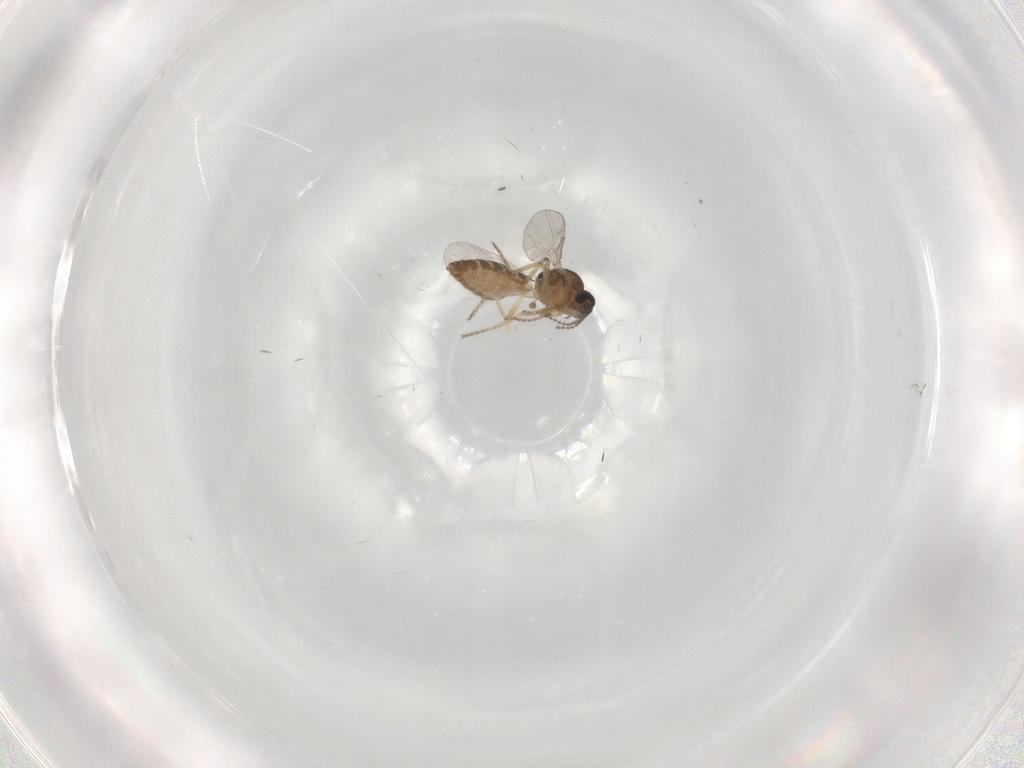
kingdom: Animalia
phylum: Arthropoda
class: Insecta
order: Diptera
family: Ceratopogonidae
